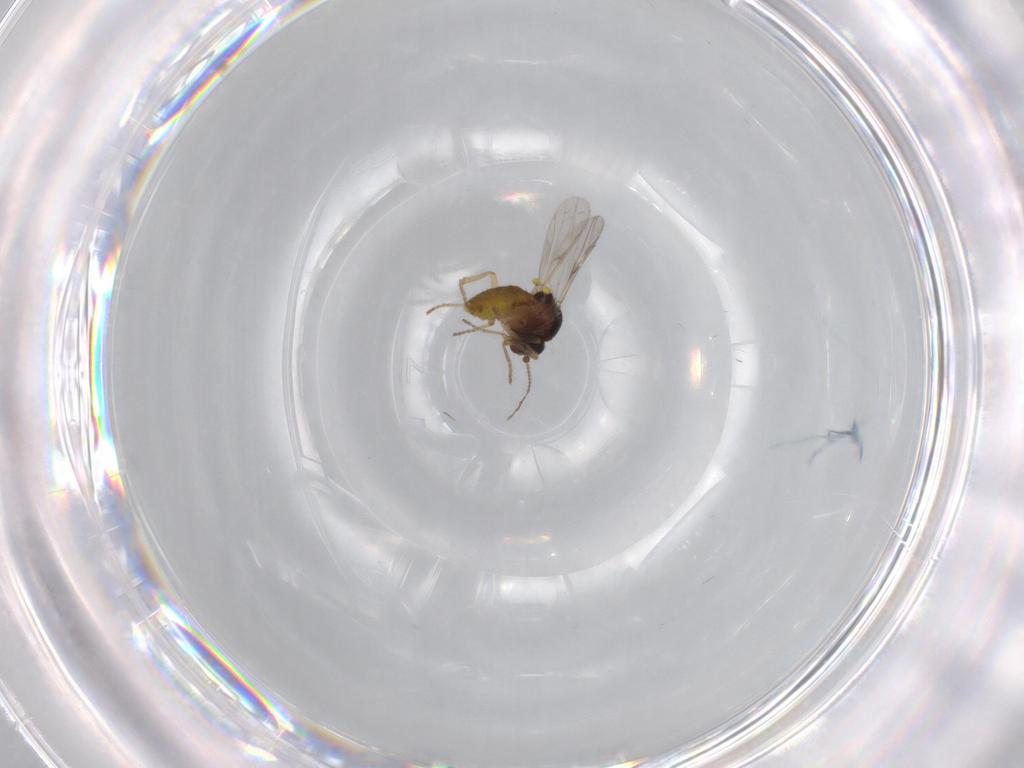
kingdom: Animalia
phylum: Arthropoda
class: Insecta
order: Diptera
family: Ceratopogonidae
